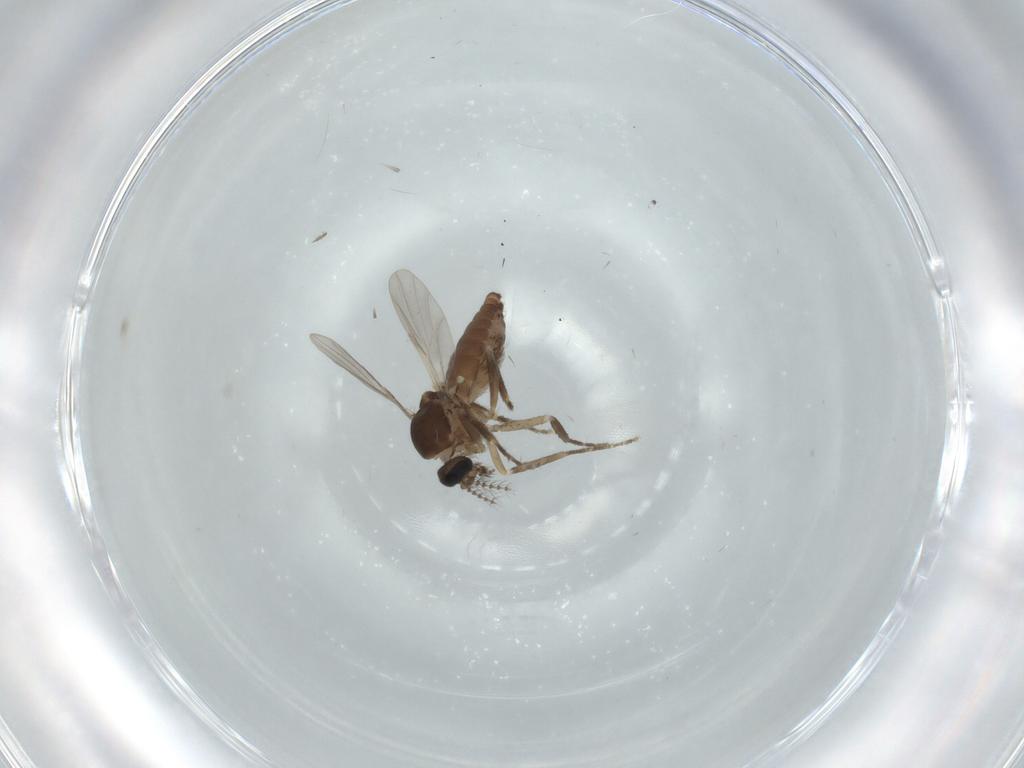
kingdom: Animalia
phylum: Arthropoda
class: Insecta
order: Diptera
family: Ceratopogonidae
